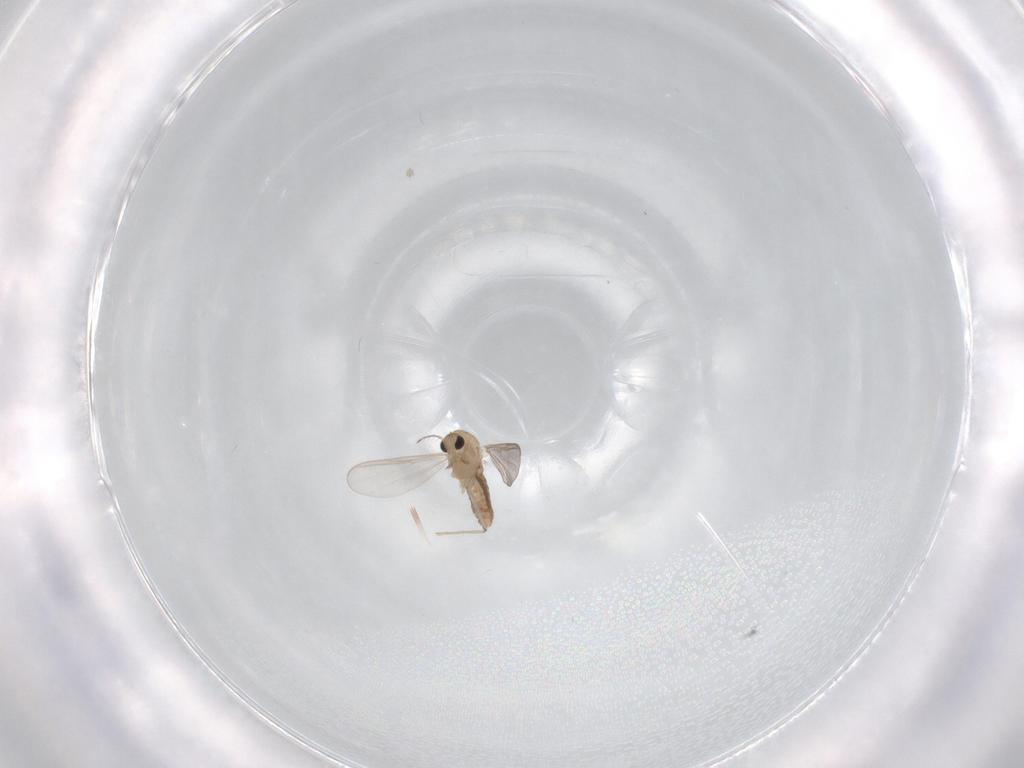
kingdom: Animalia
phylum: Arthropoda
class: Insecta
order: Diptera
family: Chironomidae
